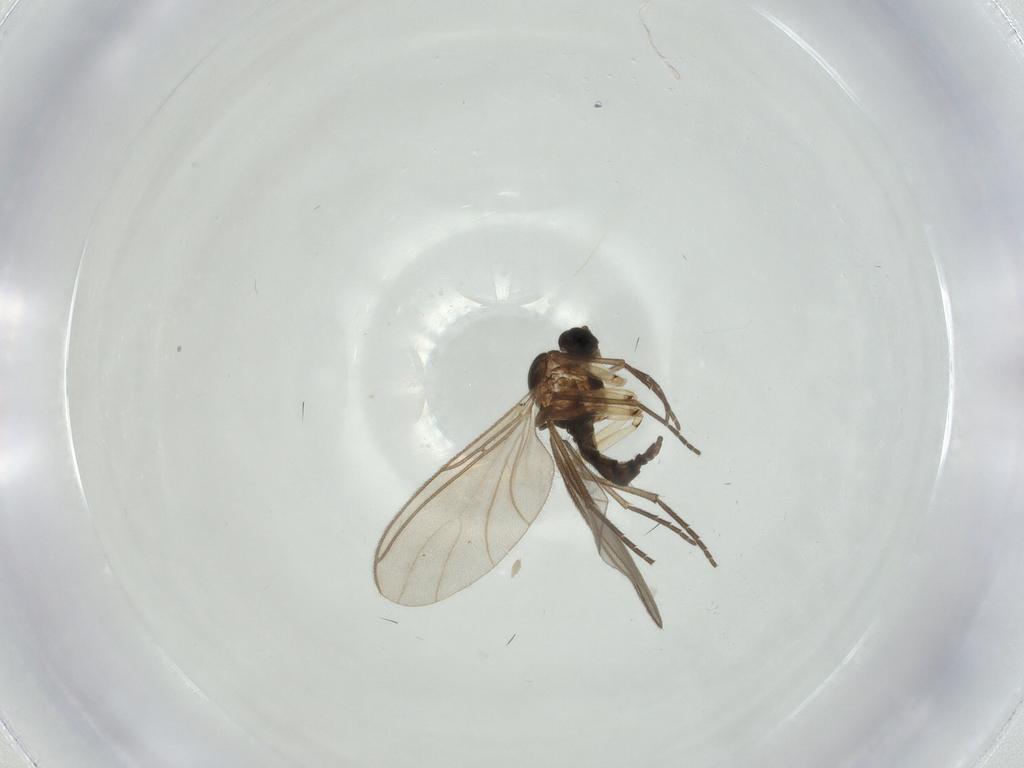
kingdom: Animalia
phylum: Arthropoda
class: Insecta
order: Diptera
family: Sciaridae
